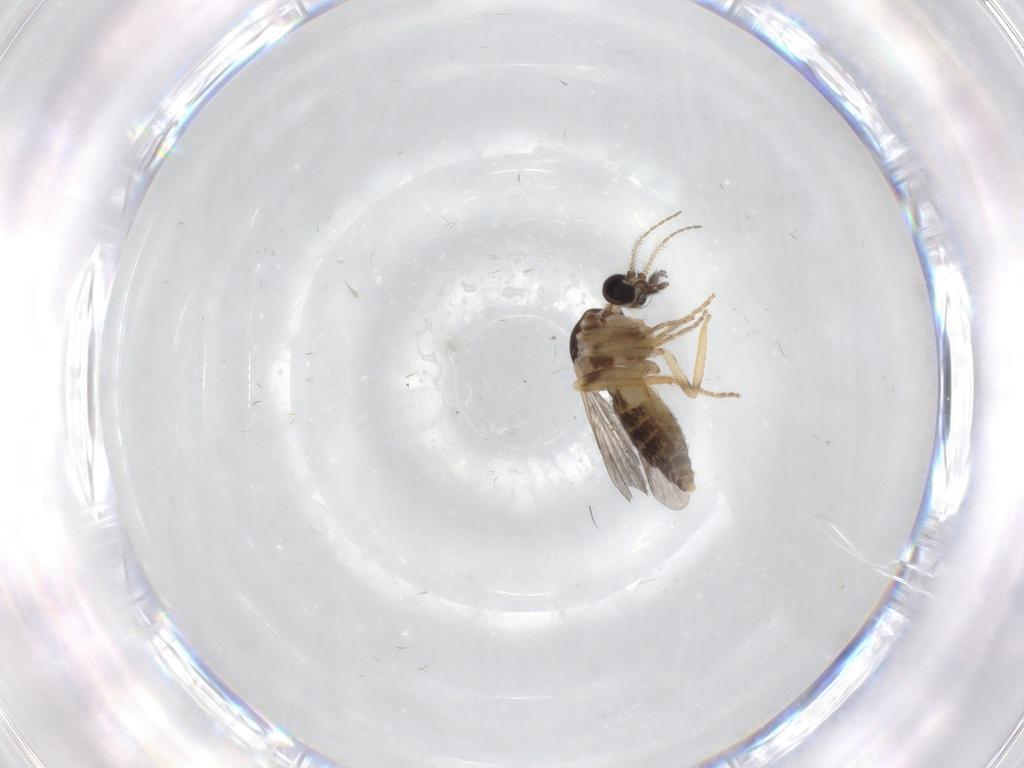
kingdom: Animalia
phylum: Arthropoda
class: Insecta
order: Diptera
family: Ceratopogonidae
